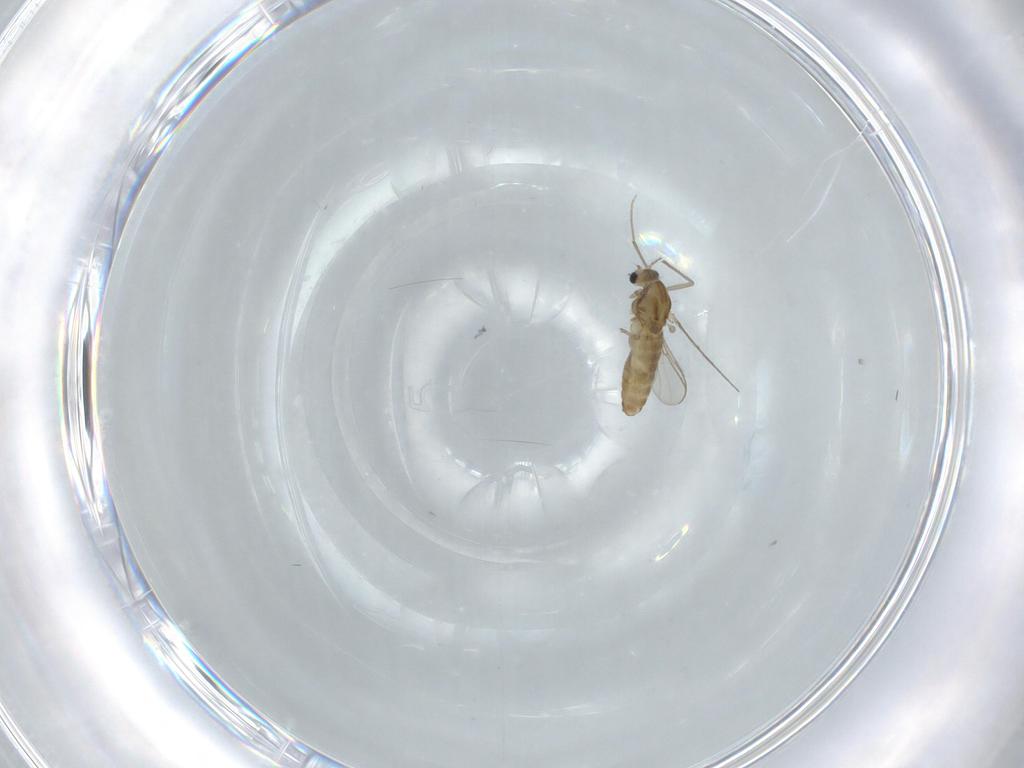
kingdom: Animalia
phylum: Arthropoda
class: Insecta
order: Diptera
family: Chironomidae
